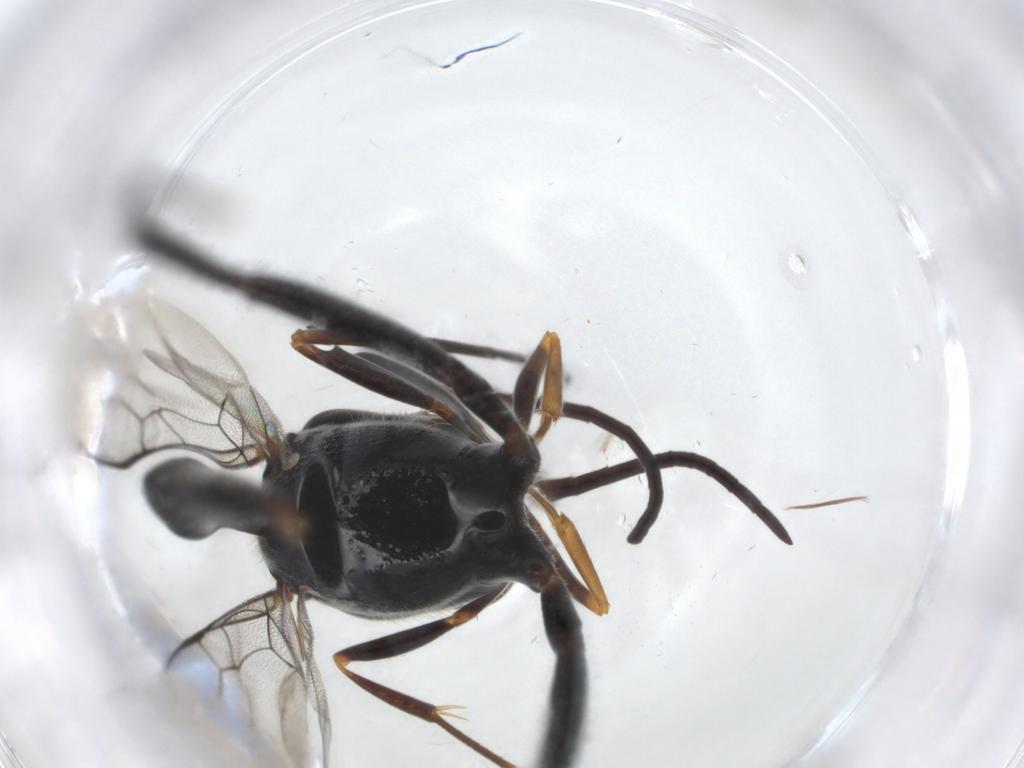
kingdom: Animalia
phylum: Arthropoda
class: Insecta
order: Hymenoptera
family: Evaniidae
